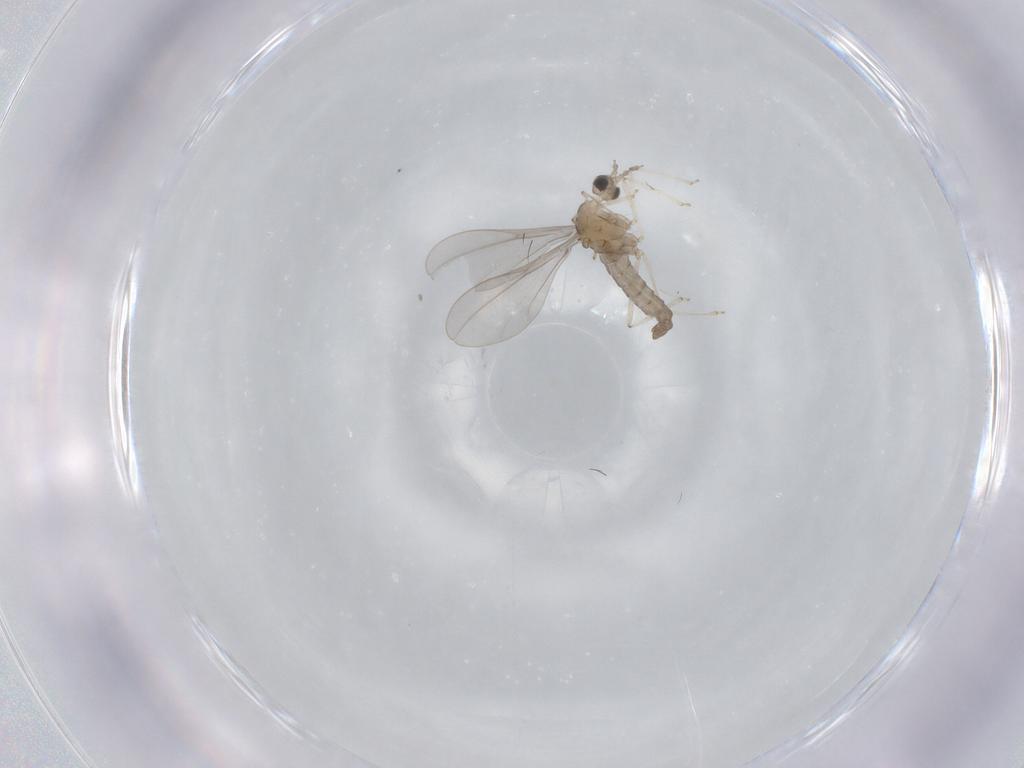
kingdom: Animalia
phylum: Arthropoda
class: Insecta
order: Diptera
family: Cecidomyiidae
